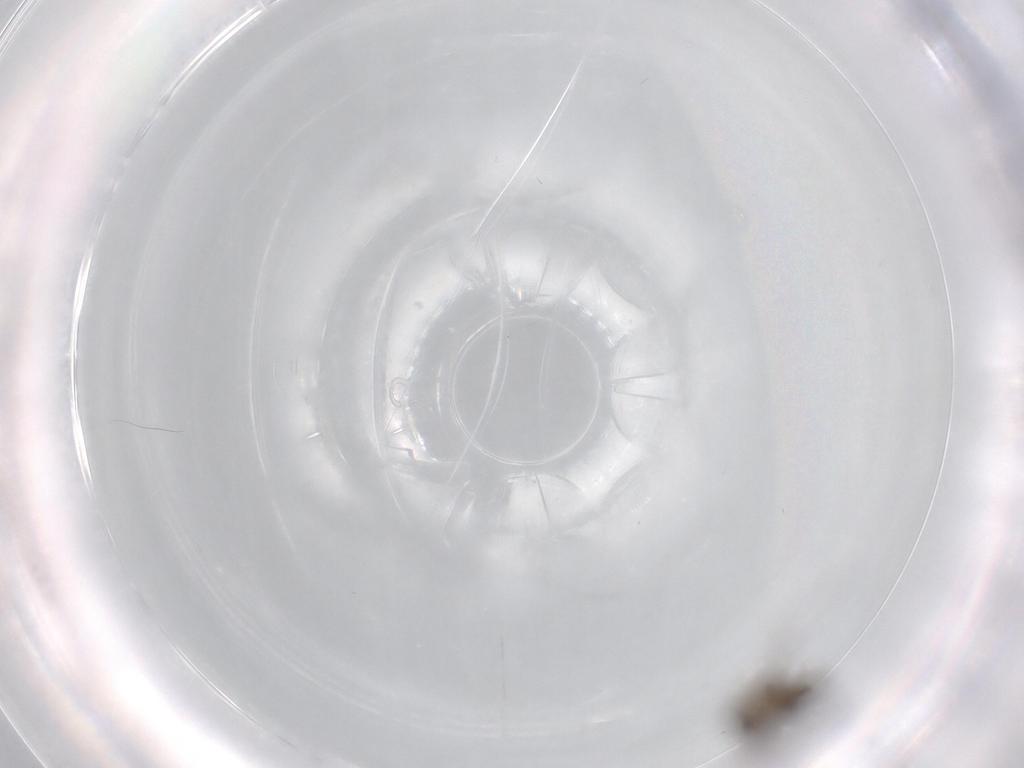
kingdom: Animalia
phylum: Arthropoda
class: Insecta
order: Diptera
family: Cecidomyiidae
